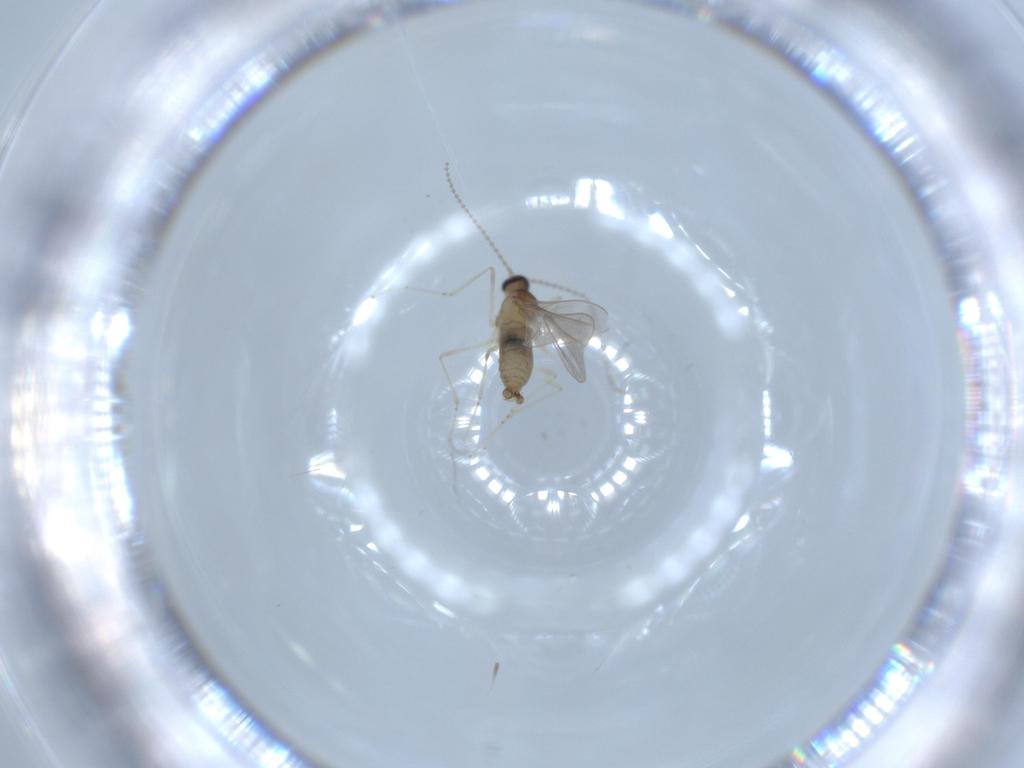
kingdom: Animalia
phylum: Arthropoda
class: Insecta
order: Diptera
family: Cecidomyiidae
